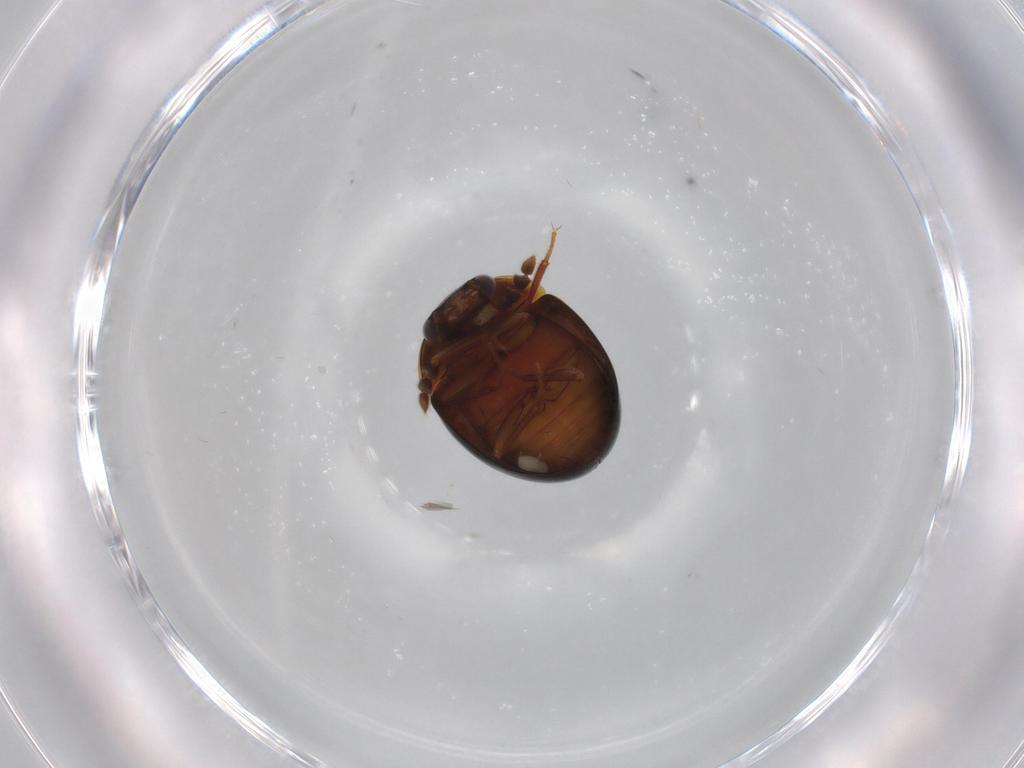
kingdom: Animalia
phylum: Arthropoda
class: Insecta
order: Coleoptera
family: Leiodidae
